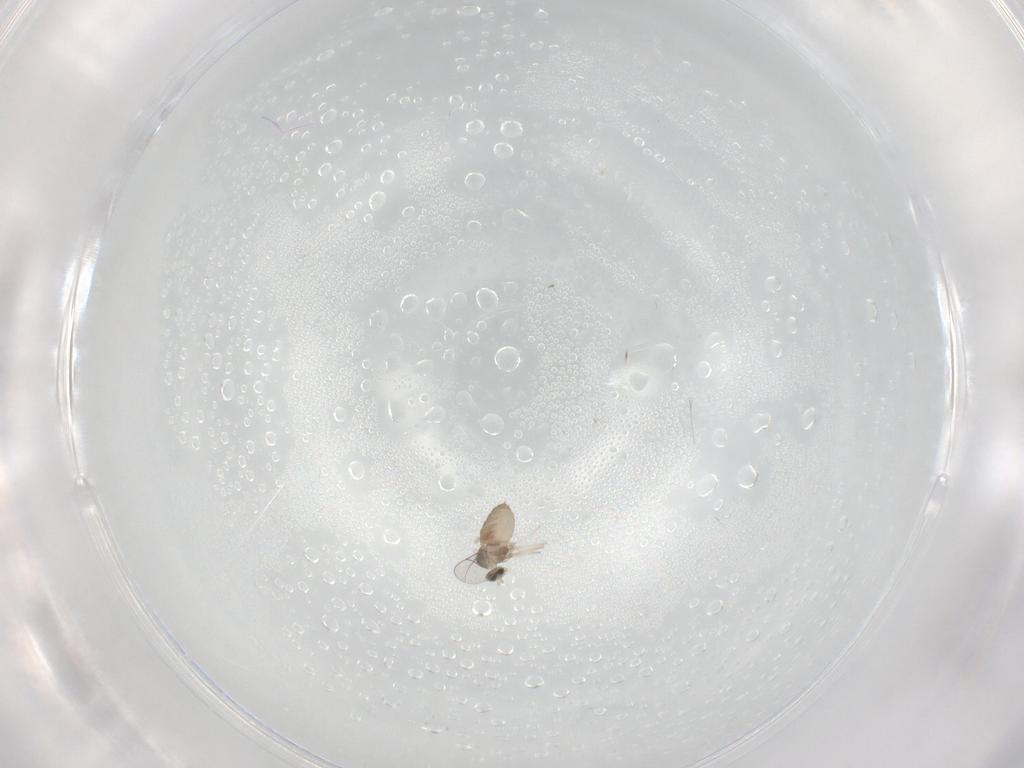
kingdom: Animalia
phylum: Arthropoda
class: Insecta
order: Diptera
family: Cecidomyiidae
